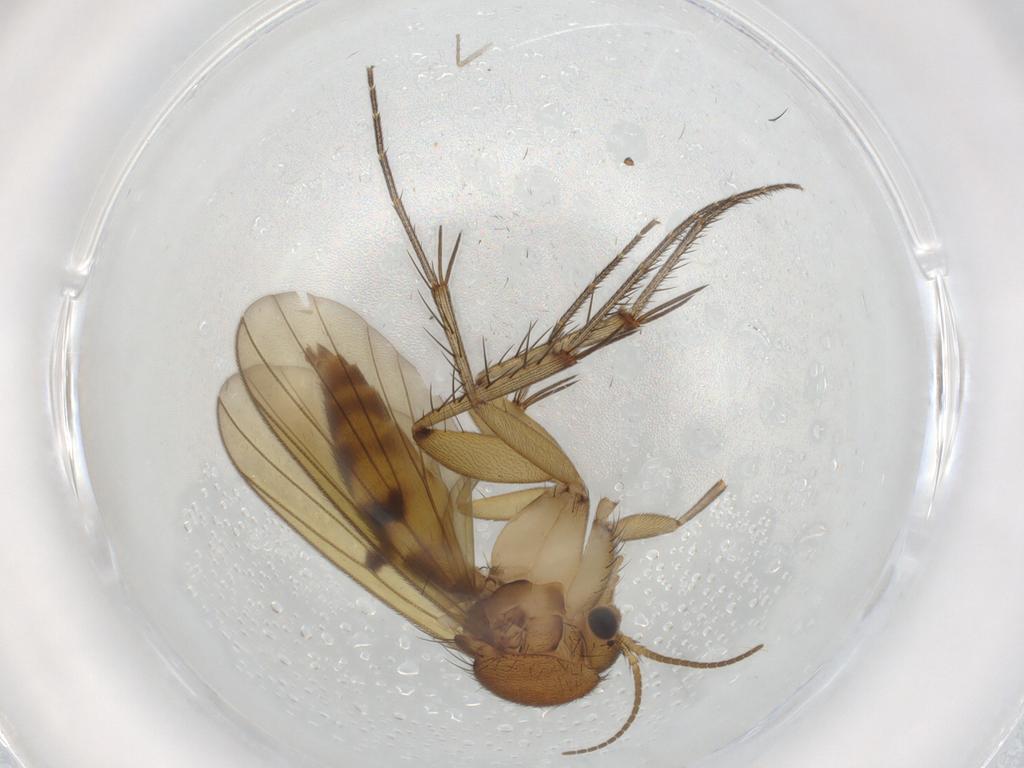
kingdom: Animalia
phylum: Arthropoda
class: Insecta
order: Diptera
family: Mycetophilidae
